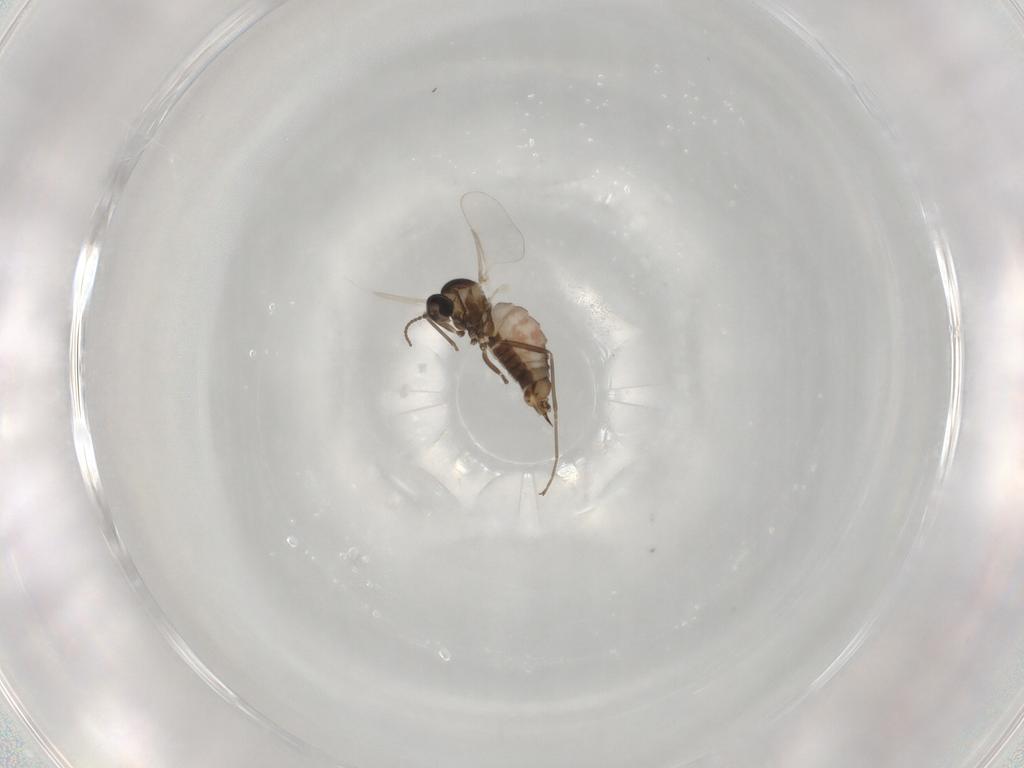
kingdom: Animalia
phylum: Arthropoda
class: Insecta
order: Diptera
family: Cecidomyiidae
